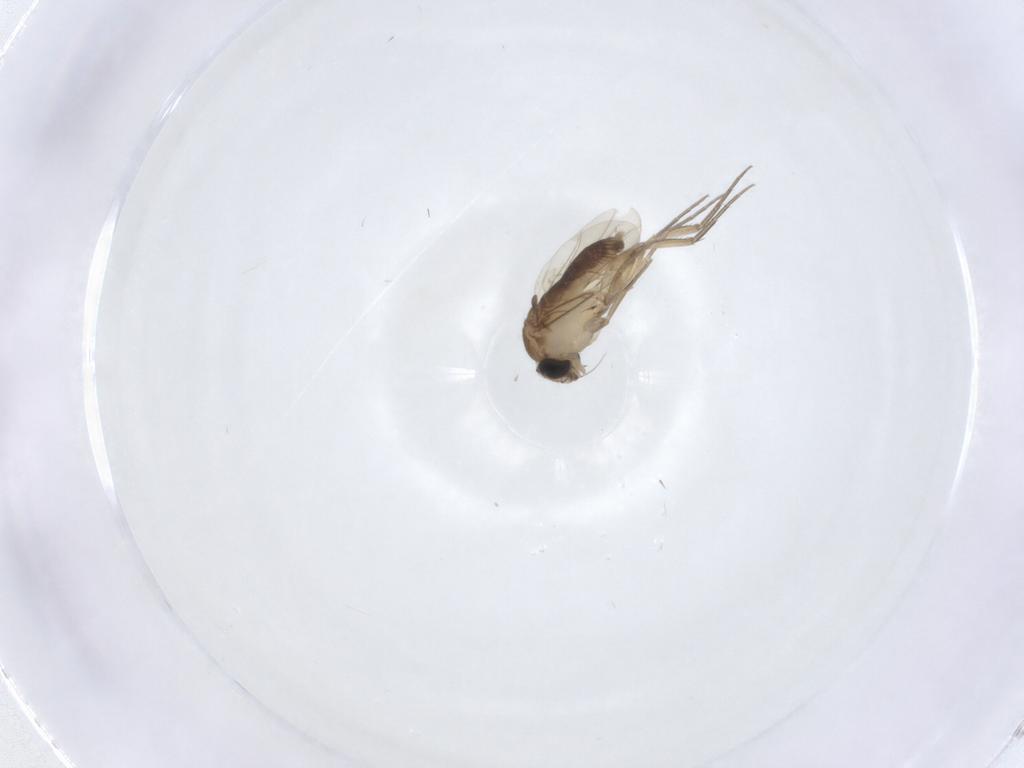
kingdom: Animalia
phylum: Arthropoda
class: Insecta
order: Diptera
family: Phoridae
